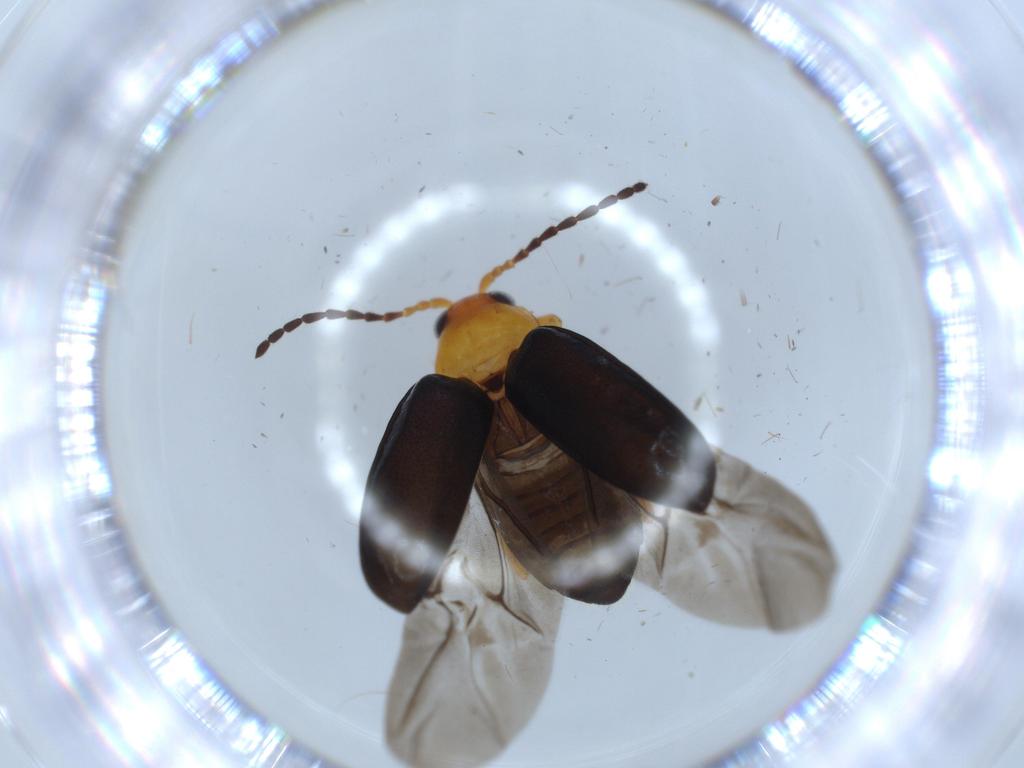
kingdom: Animalia
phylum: Arthropoda
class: Insecta
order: Coleoptera
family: Chrysomelidae
